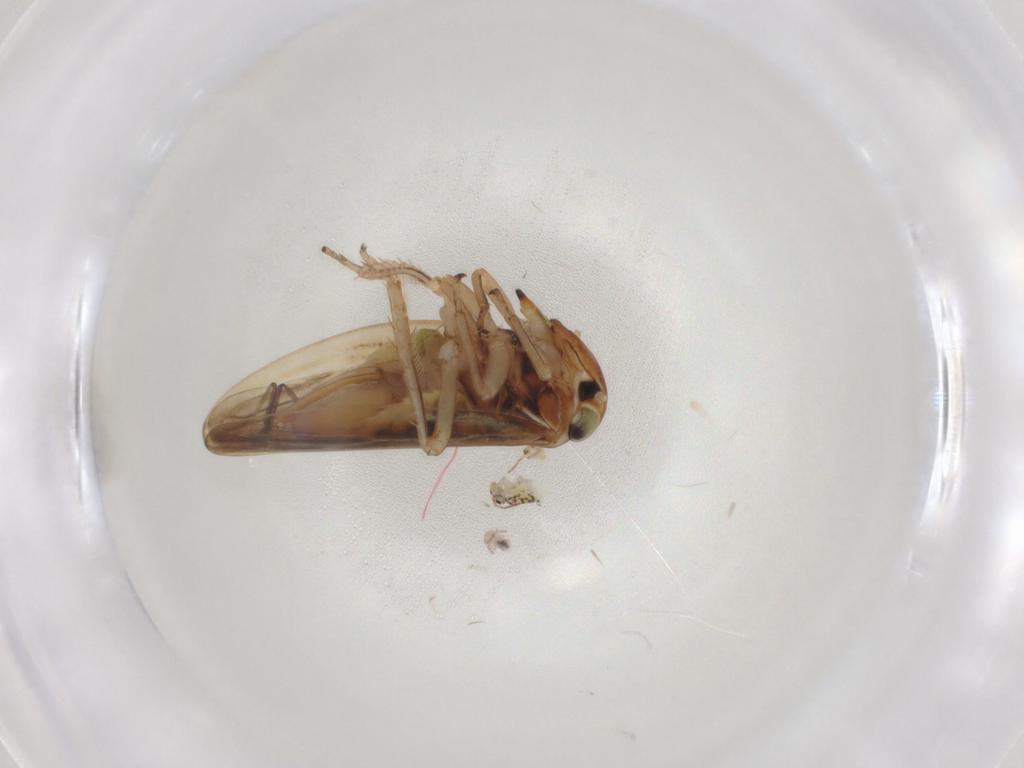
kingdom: Animalia
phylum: Arthropoda
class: Insecta
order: Hemiptera
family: Cicadellidae
